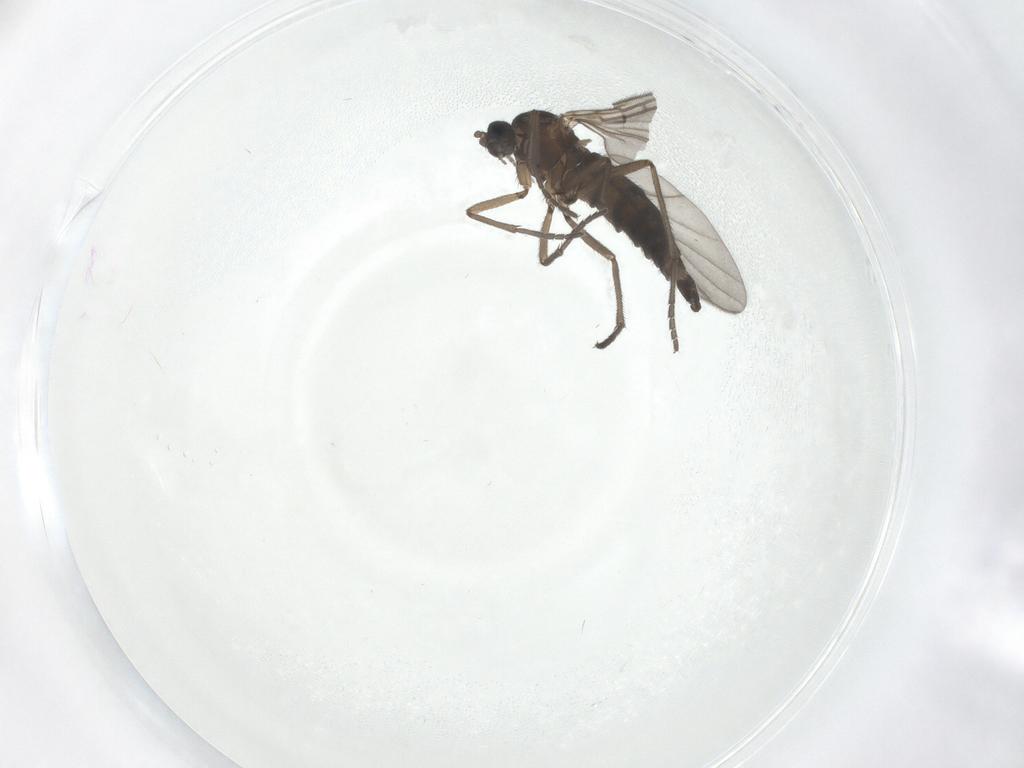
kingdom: Animalia
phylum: Arthropoda
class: Insecta
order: Diptera
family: Sciaridae
